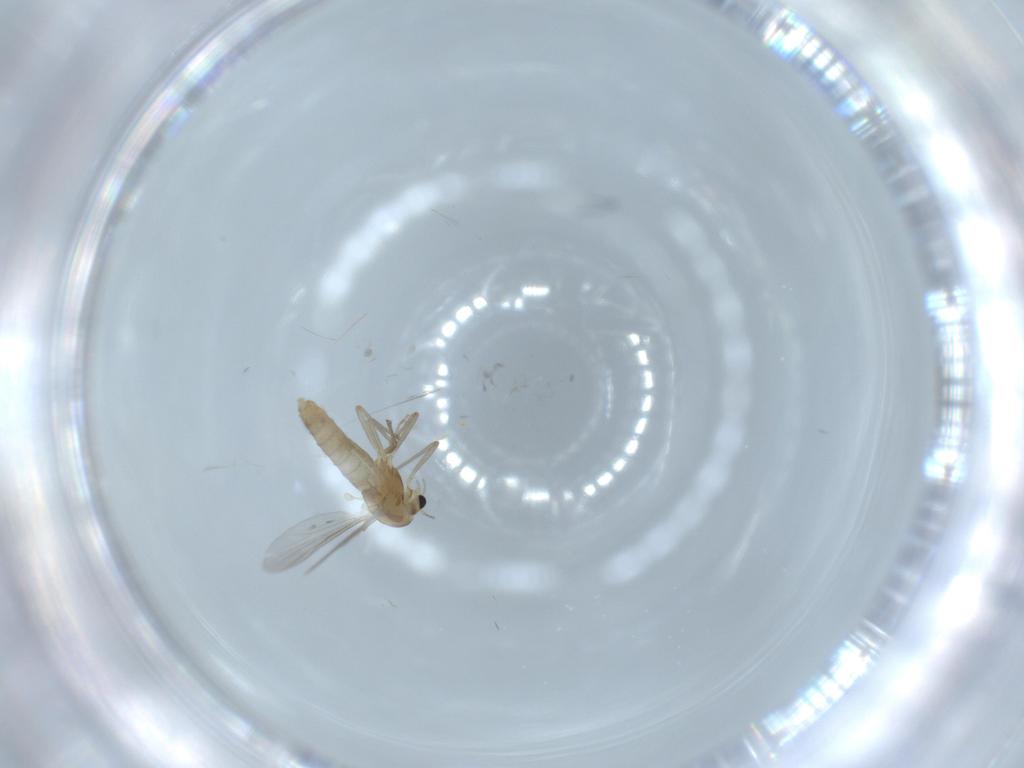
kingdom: Animalia
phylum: Arthropoda
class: Insecta
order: Diptera
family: Chironomidae
